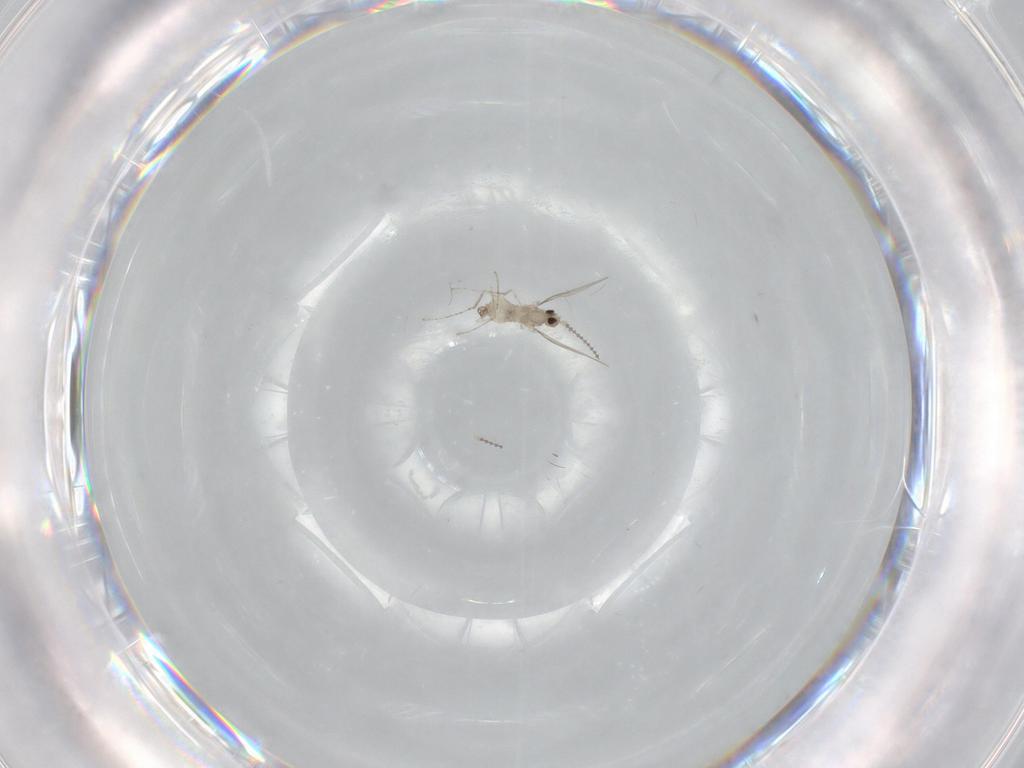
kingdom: Animalia
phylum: Arthropoda
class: Insecta
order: Diptera
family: Cecidomyiidae
